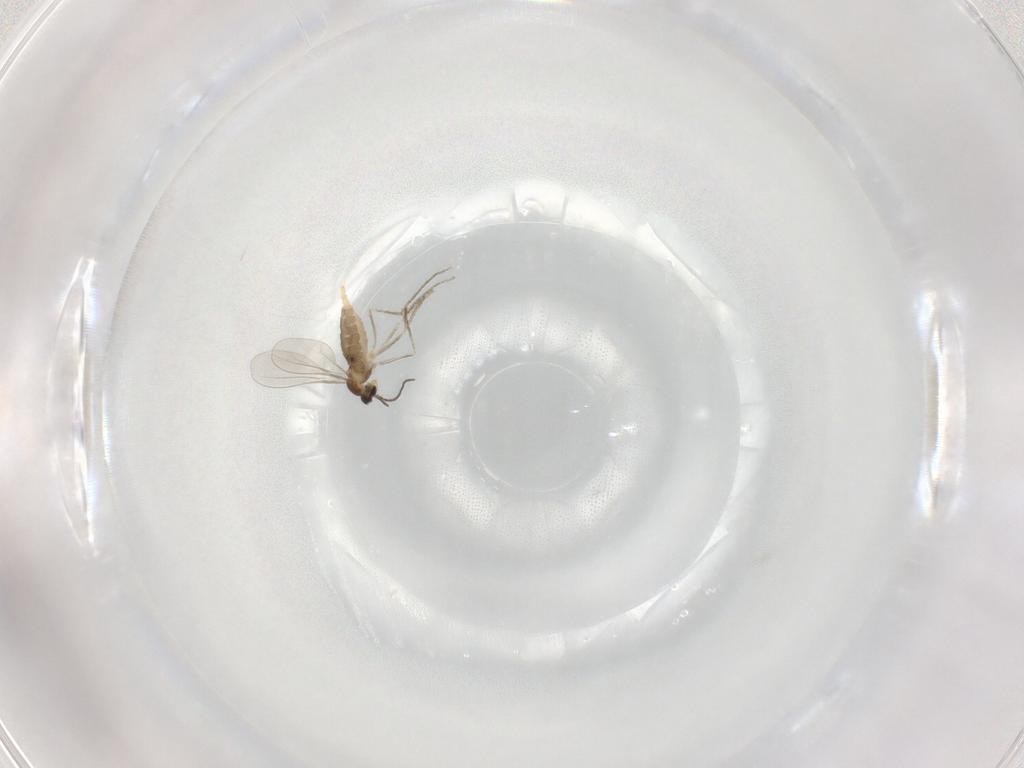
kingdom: Animalia
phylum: Arthropoda
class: Insecta
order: Diptera
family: Cecidomyiidae
